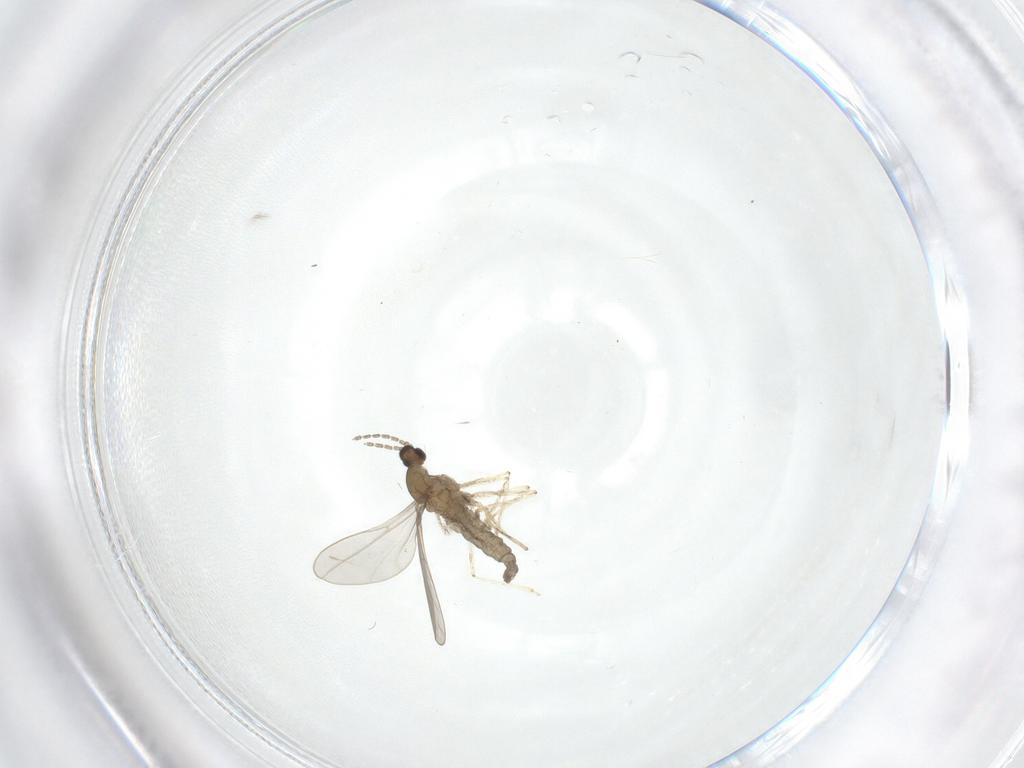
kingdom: Animalia
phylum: Arthropoda
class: Insecta
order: Diptera
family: Cecidomyiidae
